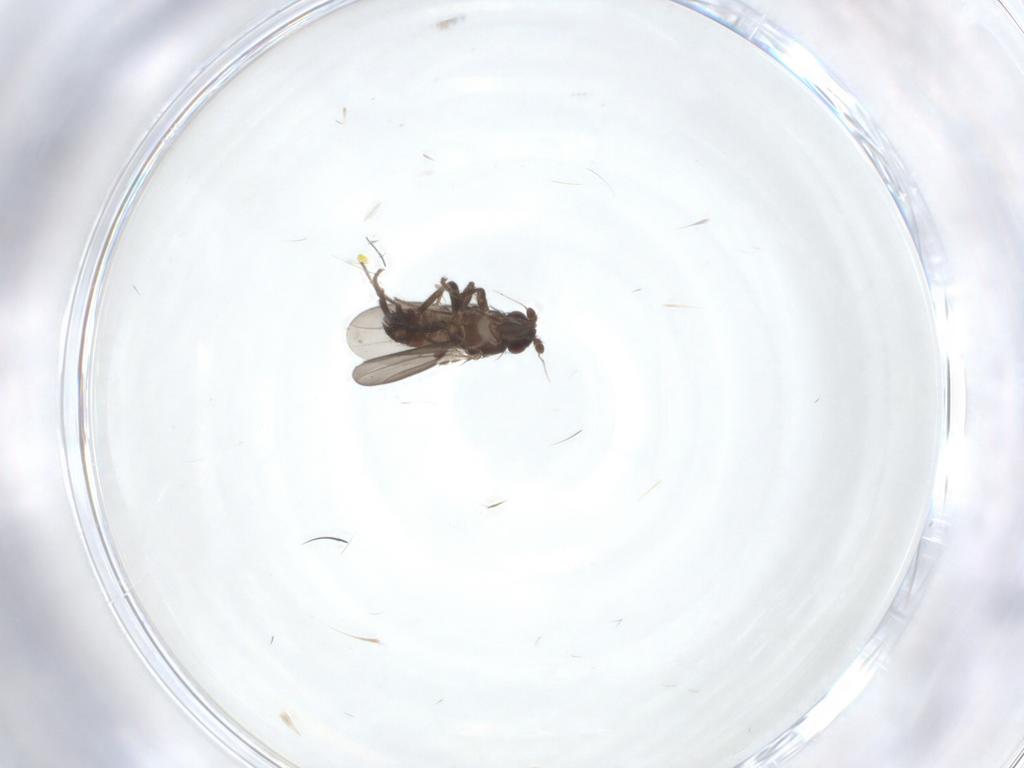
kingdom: Animalia
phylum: Arthropoda
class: Insecta
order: Diptera
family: Sphaeroceridae
